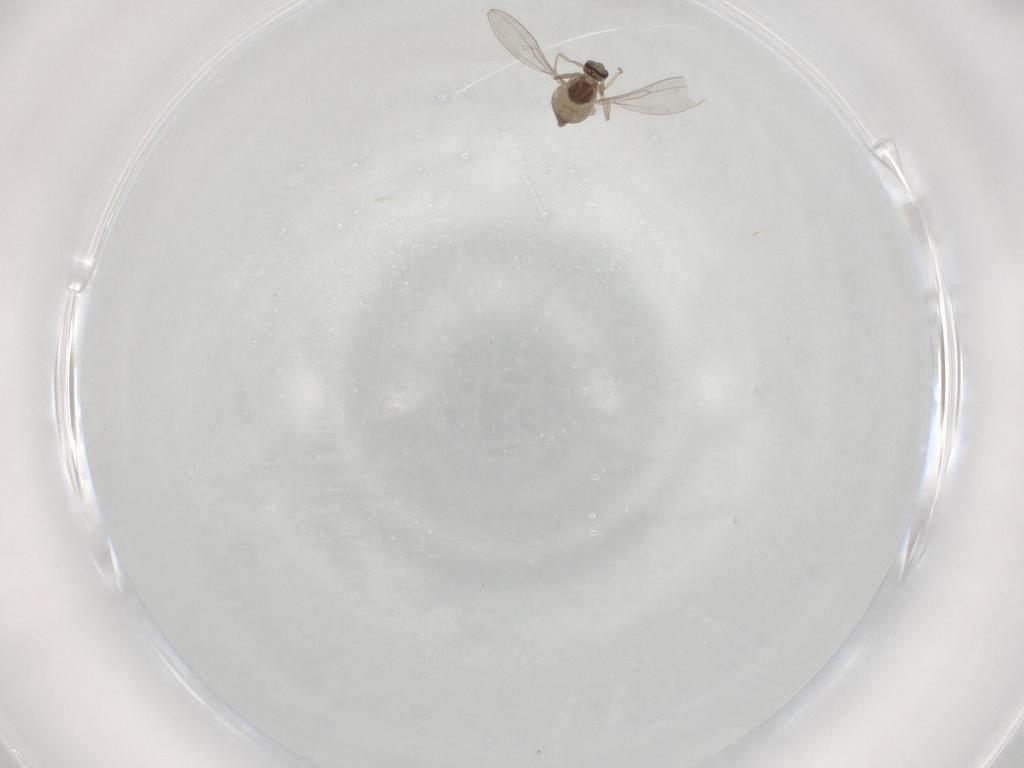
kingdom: Animalia
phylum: Arthropoda
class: Insecta
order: Diptera
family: Cecidomyiidae
